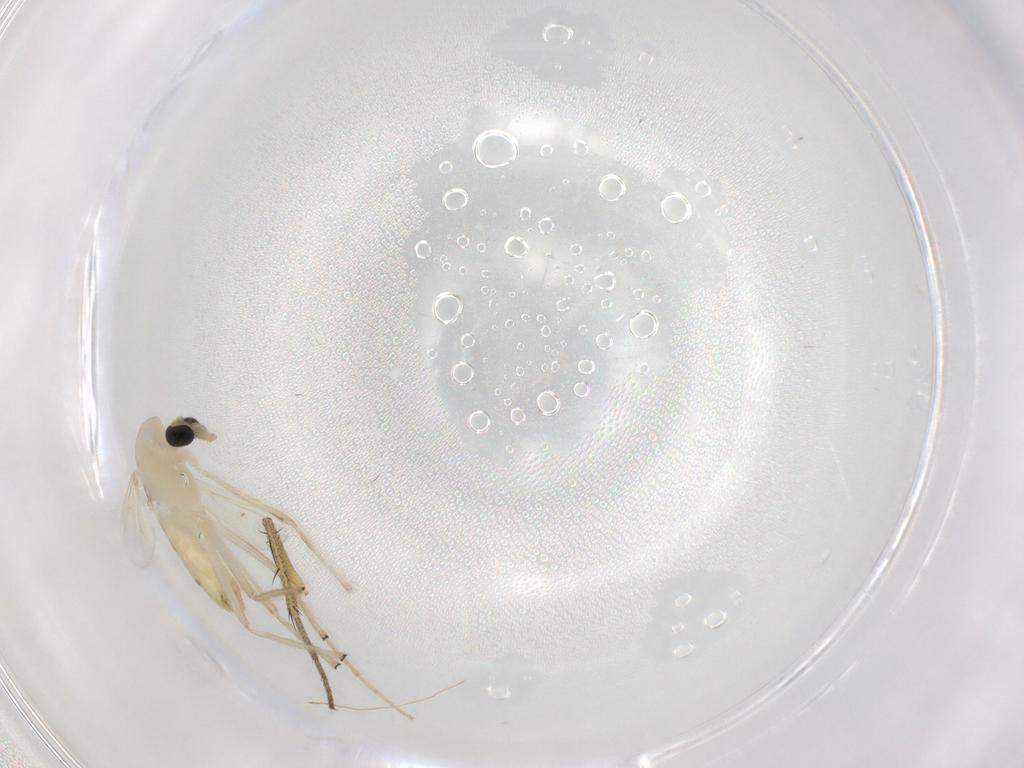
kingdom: Animalia
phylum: Arthropoda
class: Insecta
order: Diptera
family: Chironomidae
